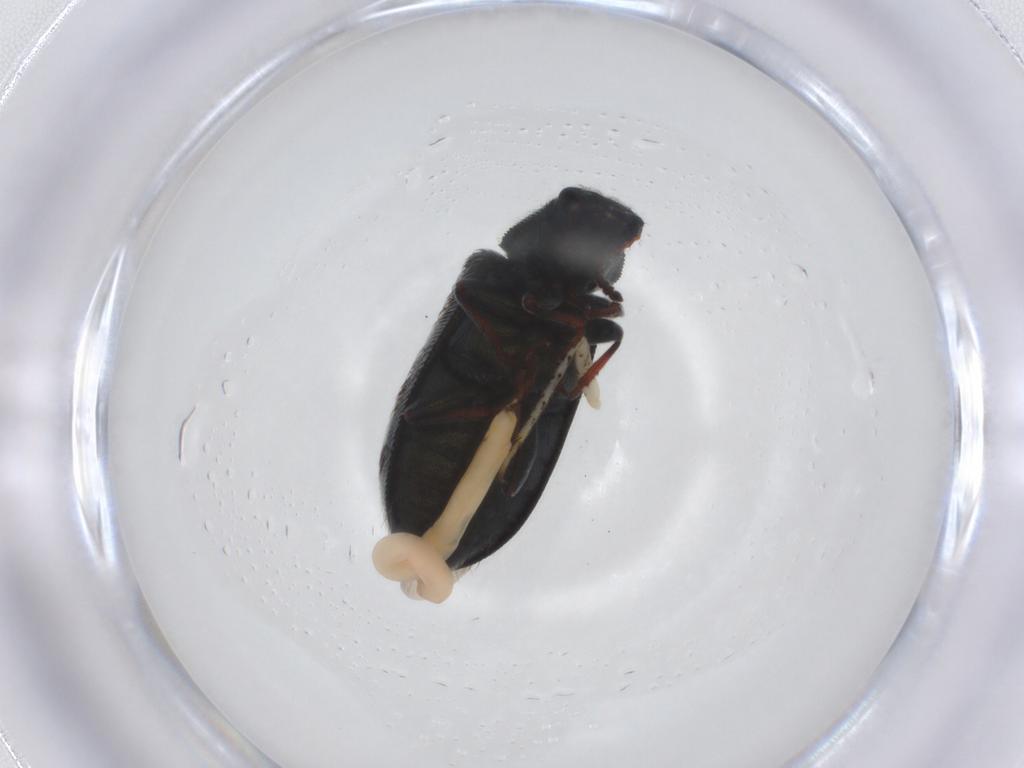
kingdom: Animalia
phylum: Arthropoda
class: Insecta
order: Coleoptera
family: Melyridae
